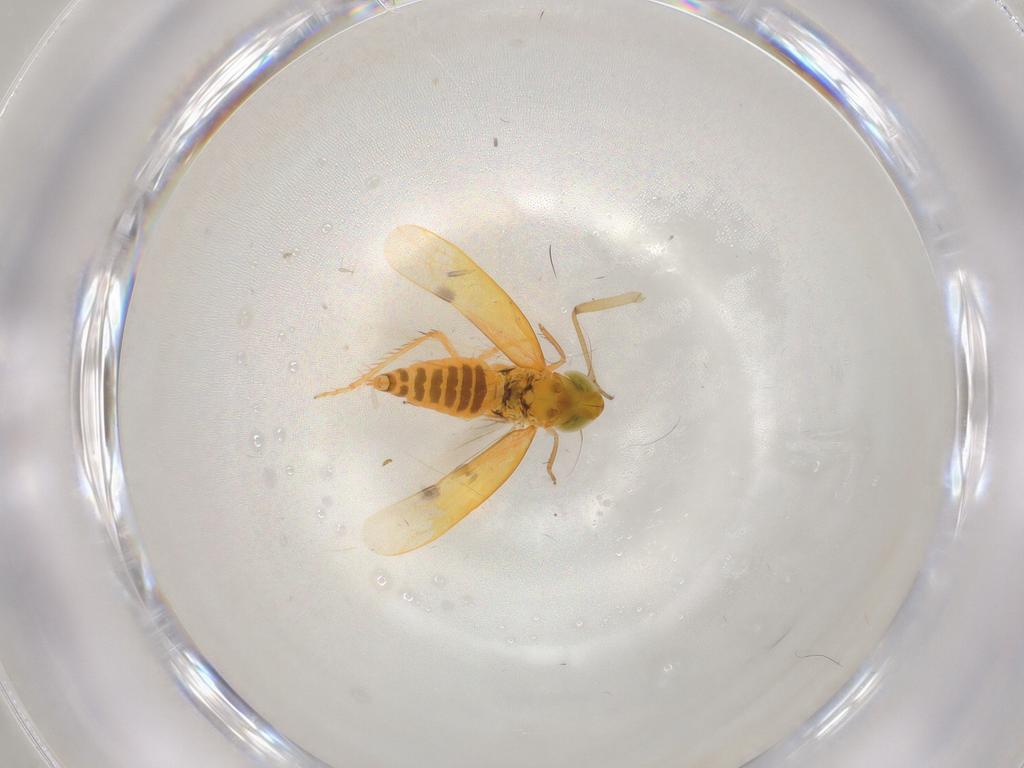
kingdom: Animalia
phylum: Arthropoda
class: Insecta
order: Hemiptera
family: Cicadellidae
